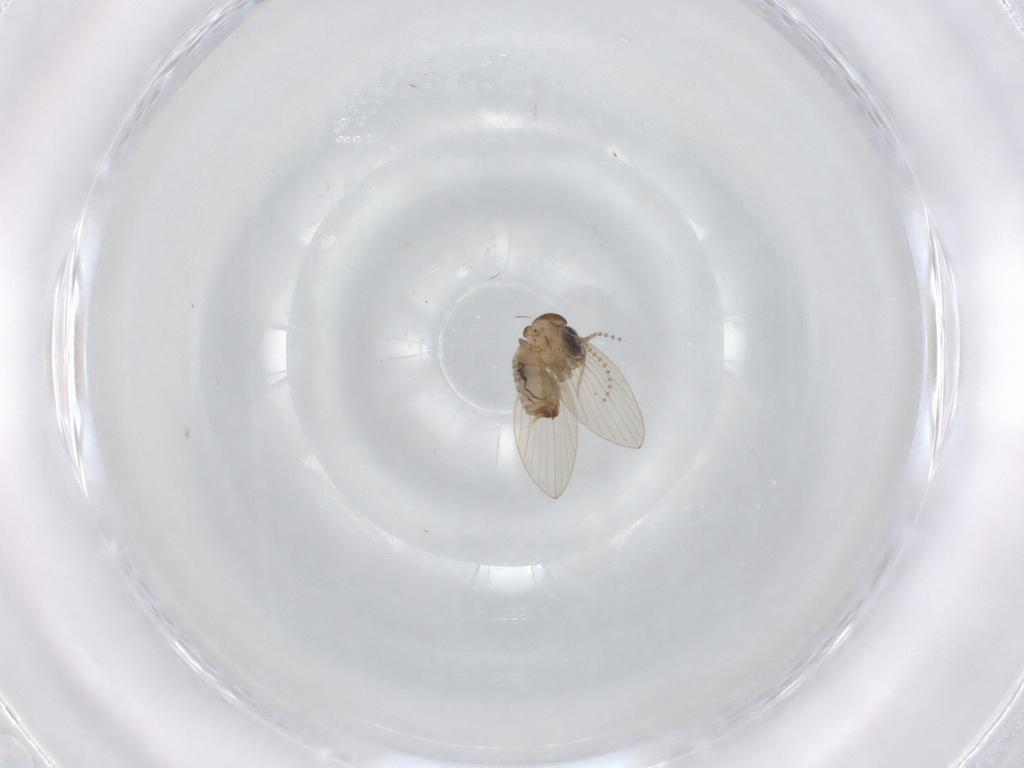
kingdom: Animalia
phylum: Arthropoda
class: Insecta
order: Diptera
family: Psychodidae
